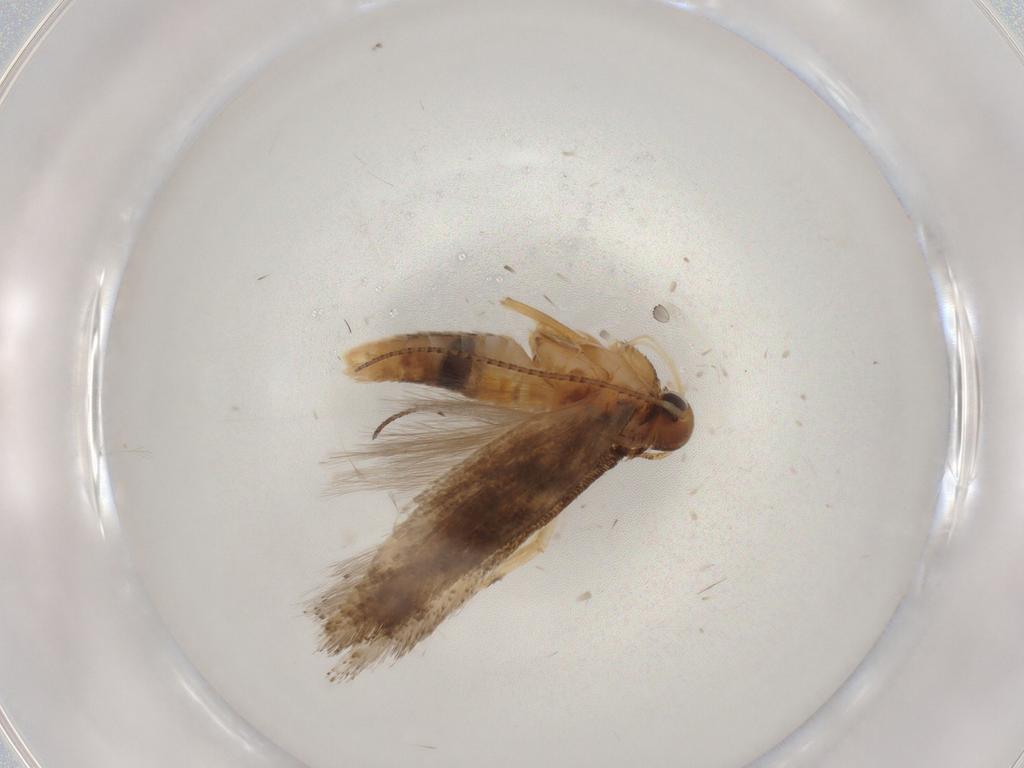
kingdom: Animalia
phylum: Arthropoda
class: Insecta
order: Lepidoptera
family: Gelechiidae
